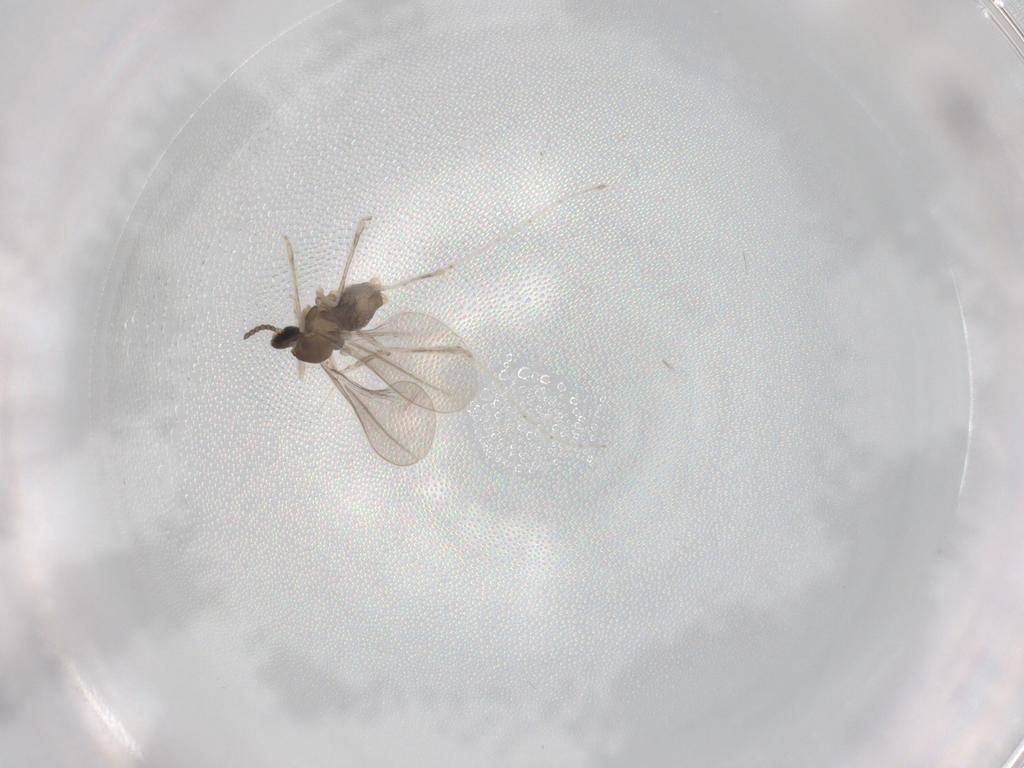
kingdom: Animalia
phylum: Arthropoda
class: Insecta
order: Diptera
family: Cecidomyiidae
